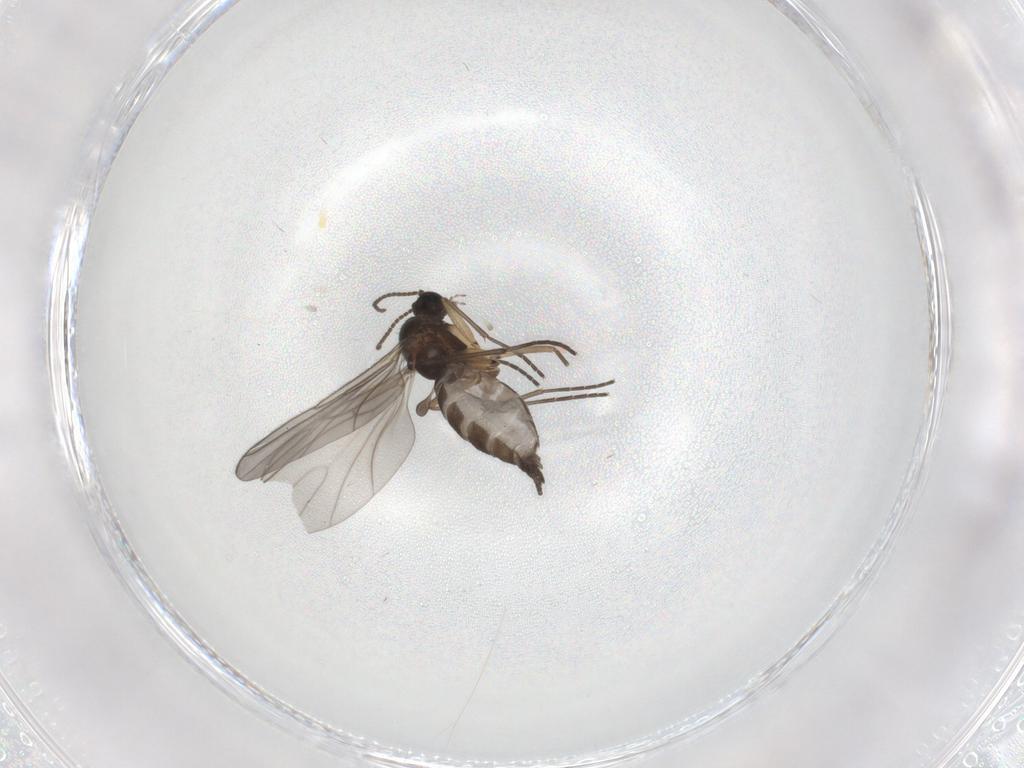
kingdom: Animalia
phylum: Arthropoda
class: Insecta
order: Diptera
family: Sciaridae
